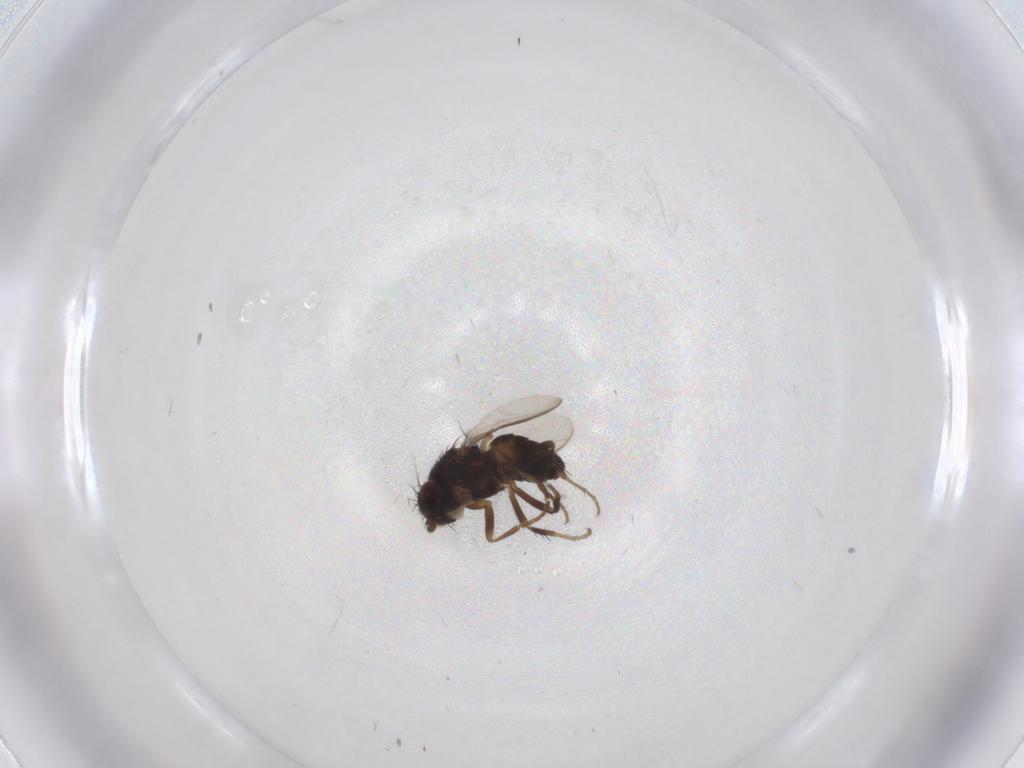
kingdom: Animalia
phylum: Arthropoda
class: Insecta
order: Diptera
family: Sphaeroceridae
